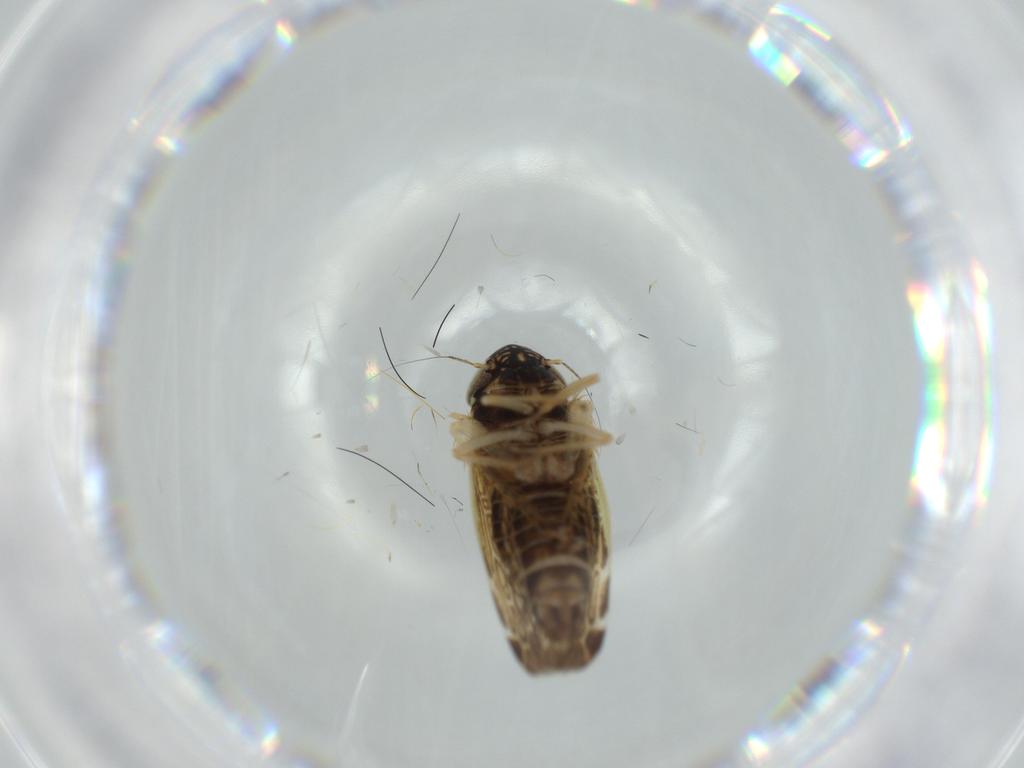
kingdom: Animalia
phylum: Arthropoda
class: Insecta
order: Hemiptera
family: Cicadellidae
